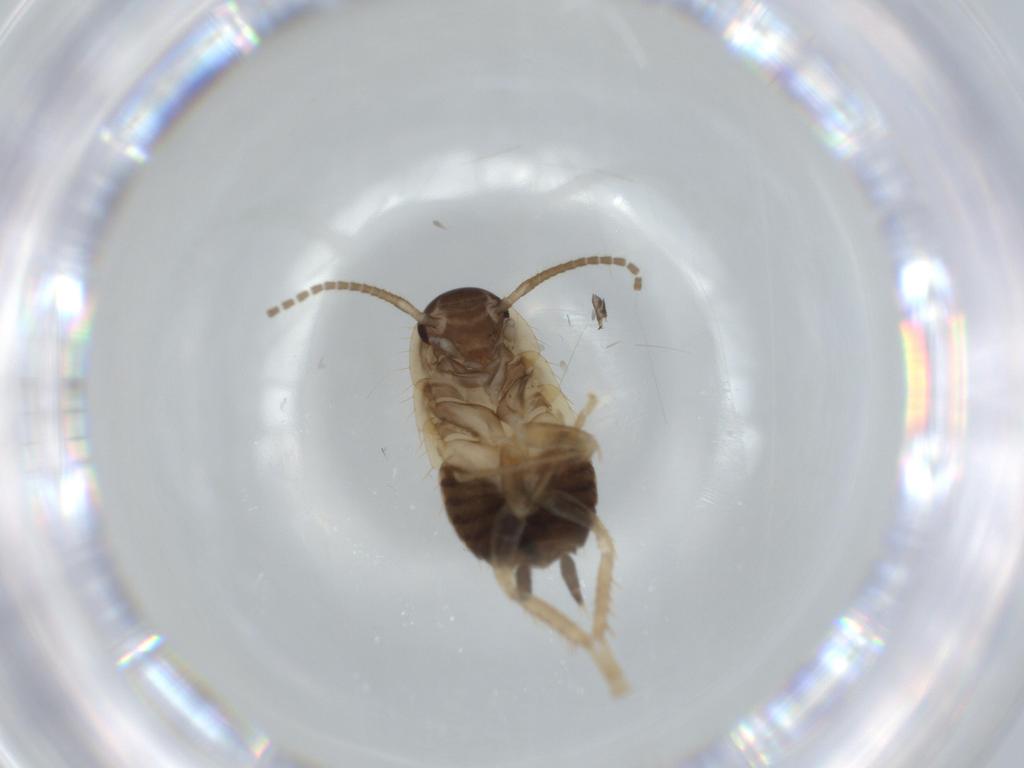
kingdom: Animalia
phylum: Arthropoda
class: Insecta
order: Blattodea
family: Ectobiidae
